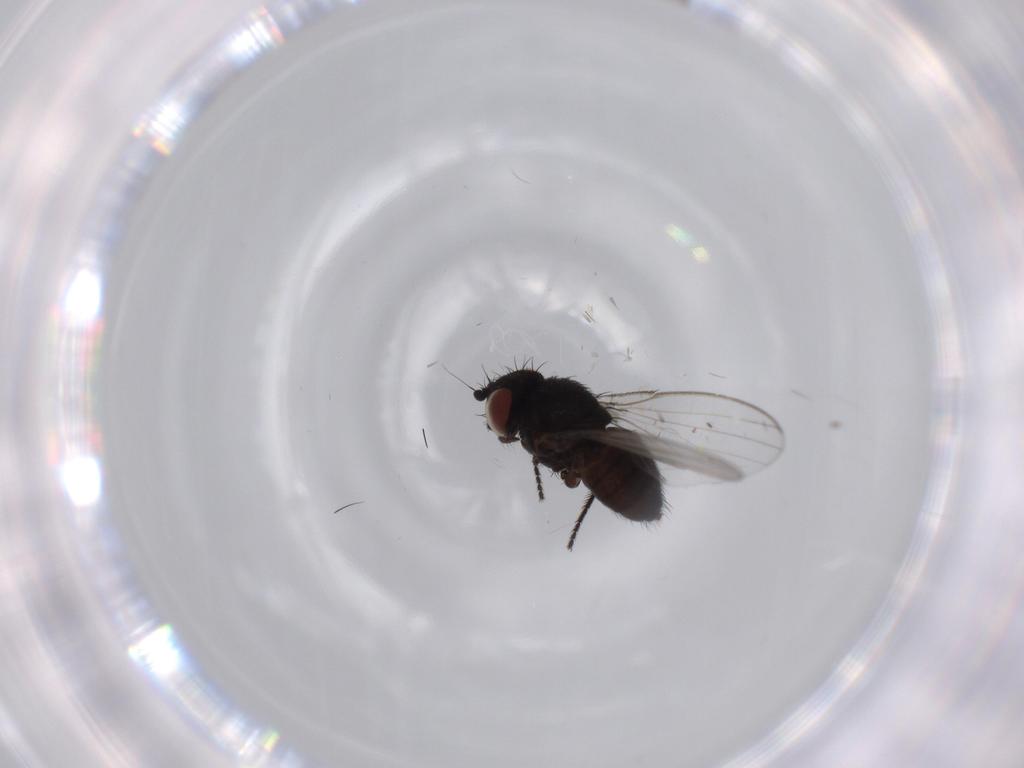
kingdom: Animalia
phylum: Arthropoda
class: Insecta
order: Diptera
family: Milichiidae
